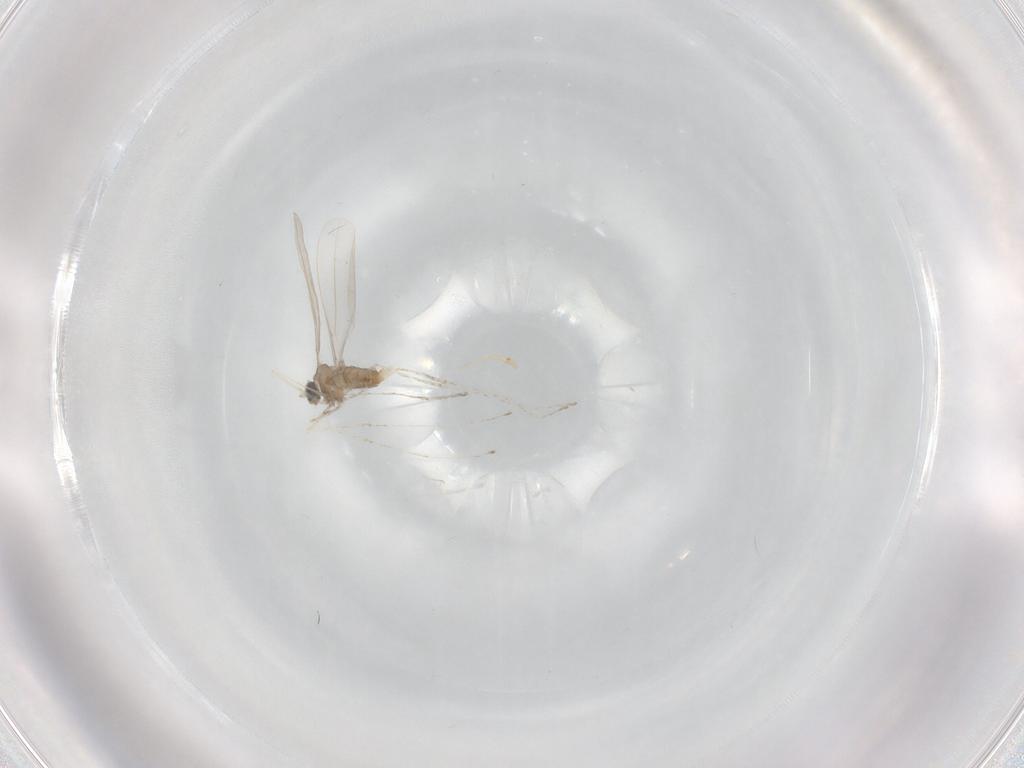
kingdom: Animalia
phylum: Arthropoda
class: Insecta
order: Diptera
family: Cecidomyiidae
